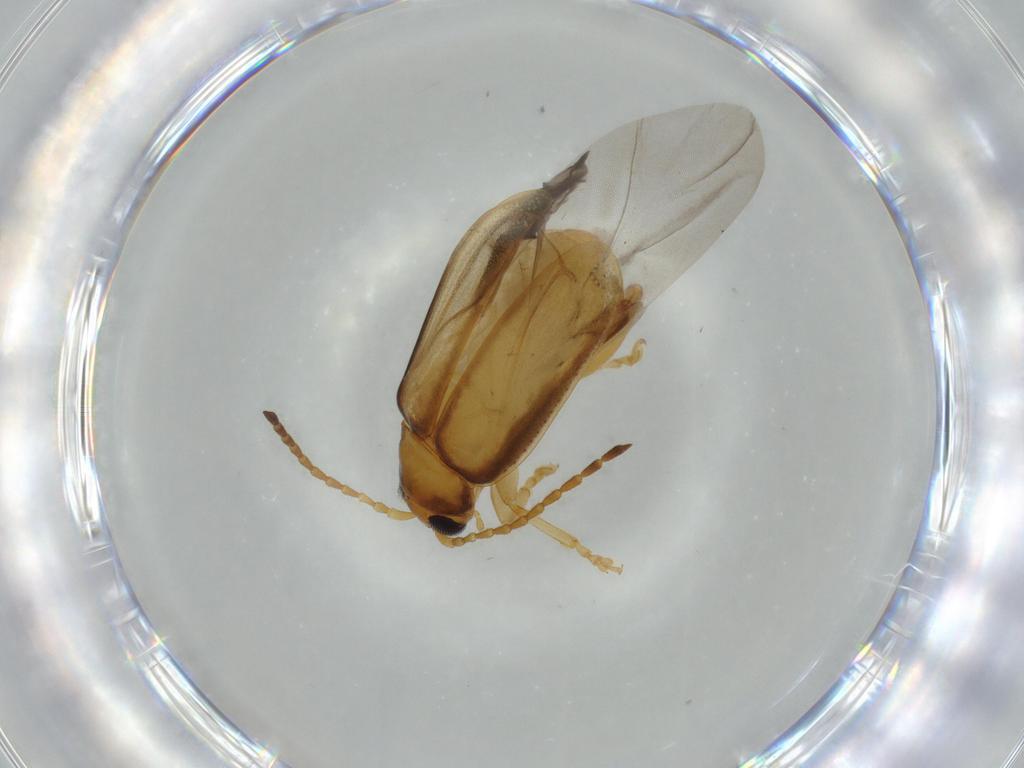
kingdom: Animalia
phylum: Arthropoda
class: Insecta
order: Coleoptera
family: Chrysomelidae
